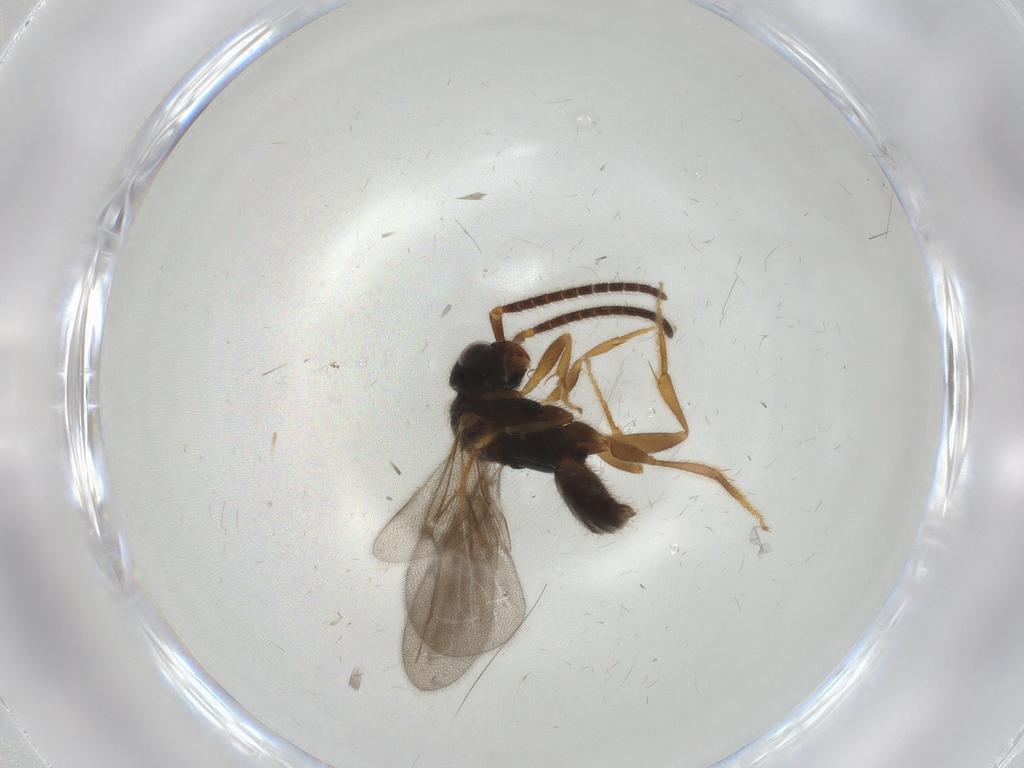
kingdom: Animalia
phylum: Arthropoda
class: Insecta
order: Hymenoptera
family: Bethylidae
